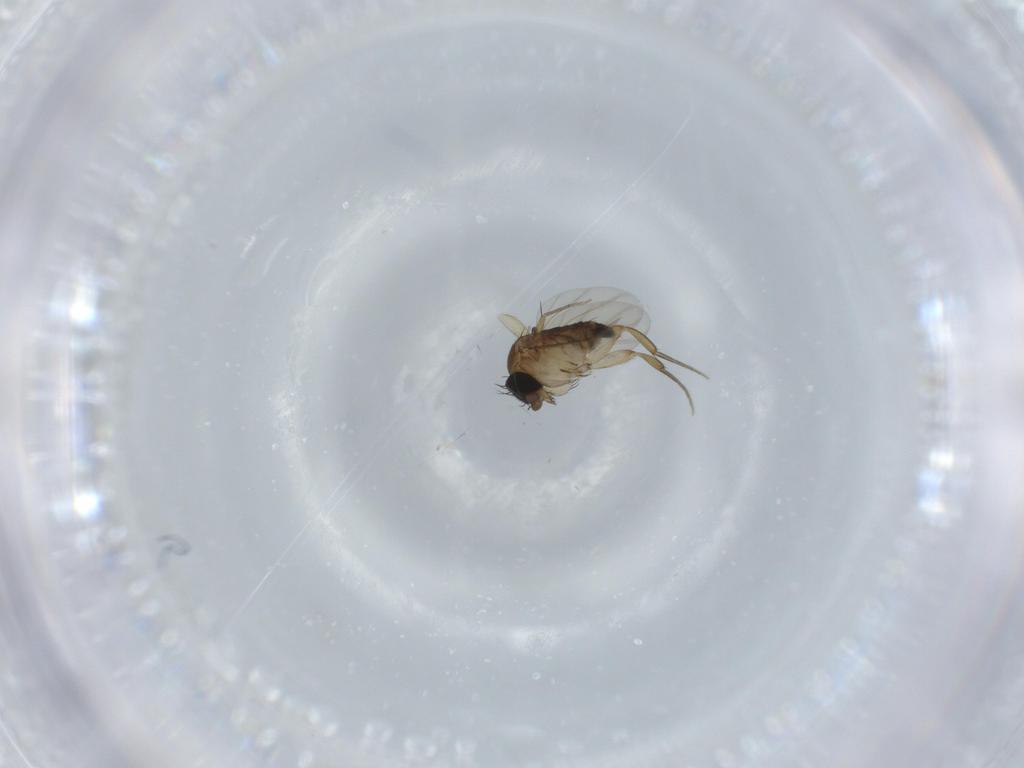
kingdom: Animalia
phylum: Arthropoda
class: Insecta
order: Diptera
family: Phoridae
